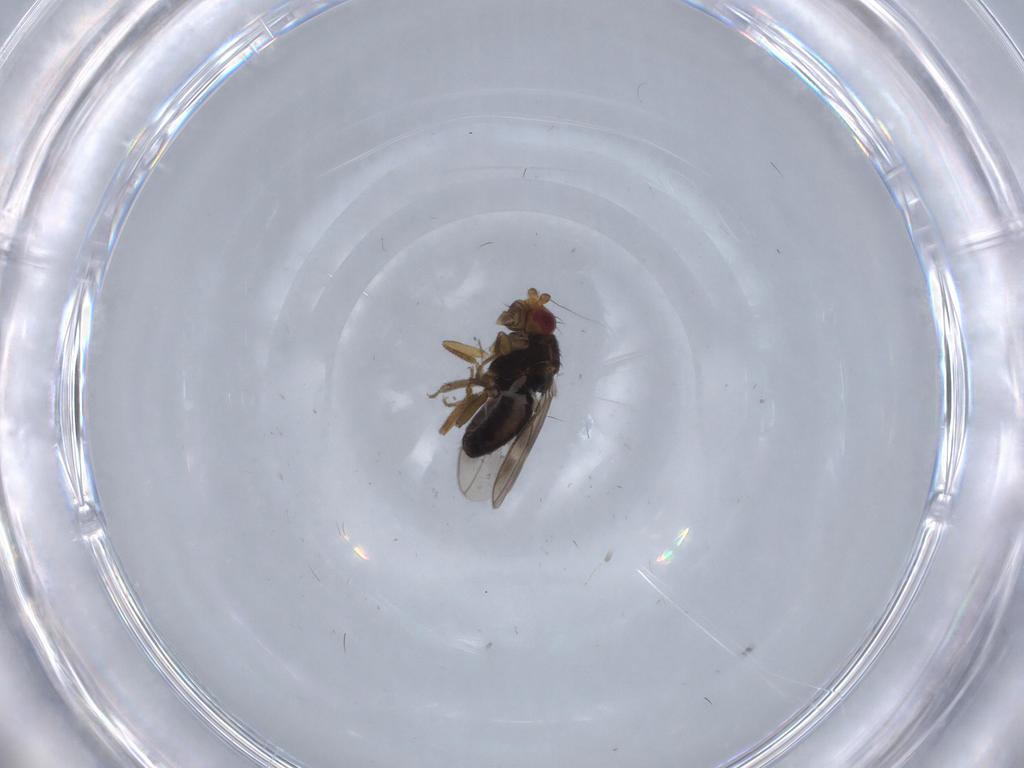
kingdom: Animalia
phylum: Arthropoda
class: Insecta
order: Diptera
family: Sphaeroceridae
